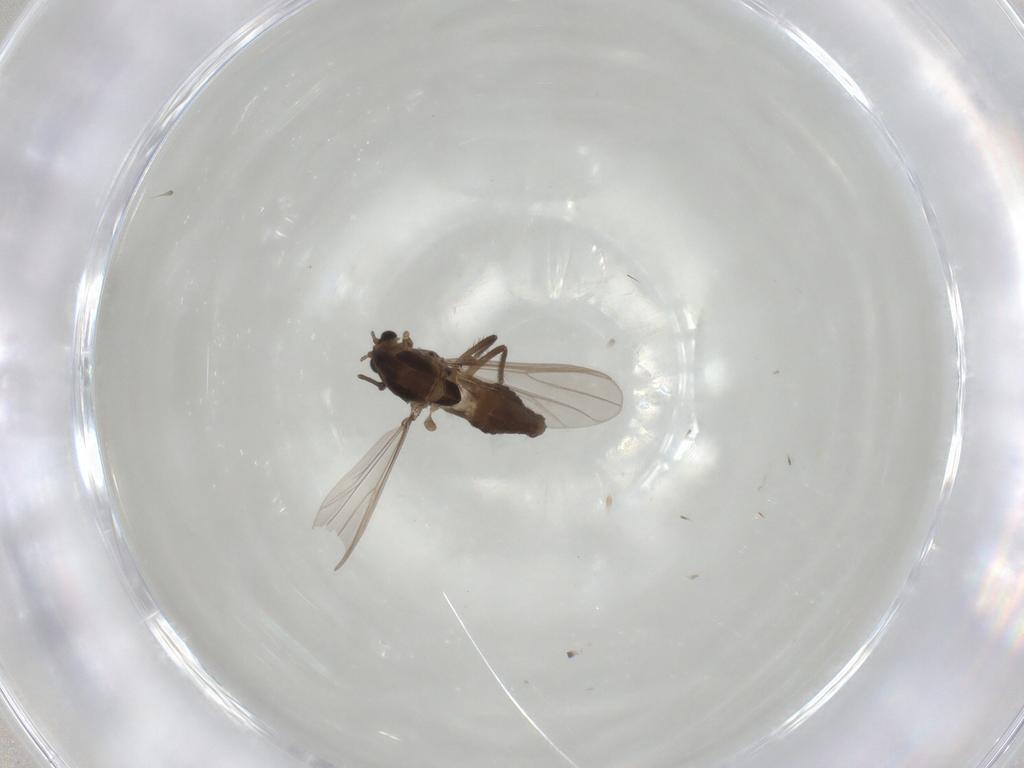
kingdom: Animalia
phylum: Arthropoda
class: Insecta
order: Diptera
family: Chironomidae
